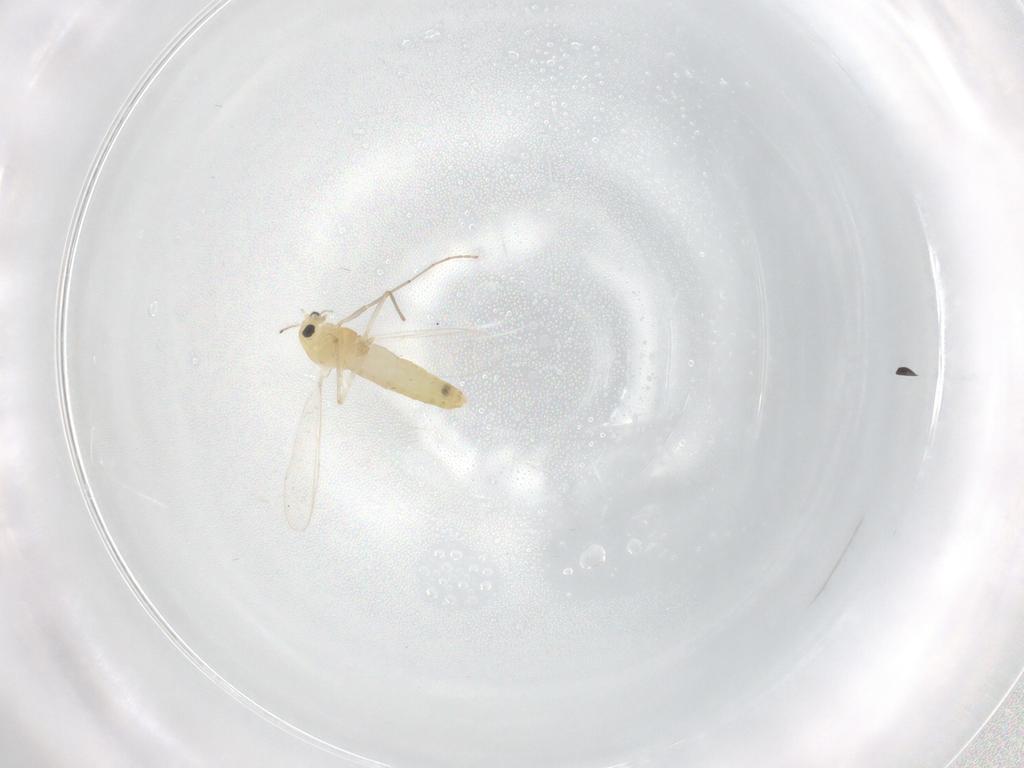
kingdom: Animalia
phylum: Arthropoda
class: Insecta
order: Diptera
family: Chironomidae
